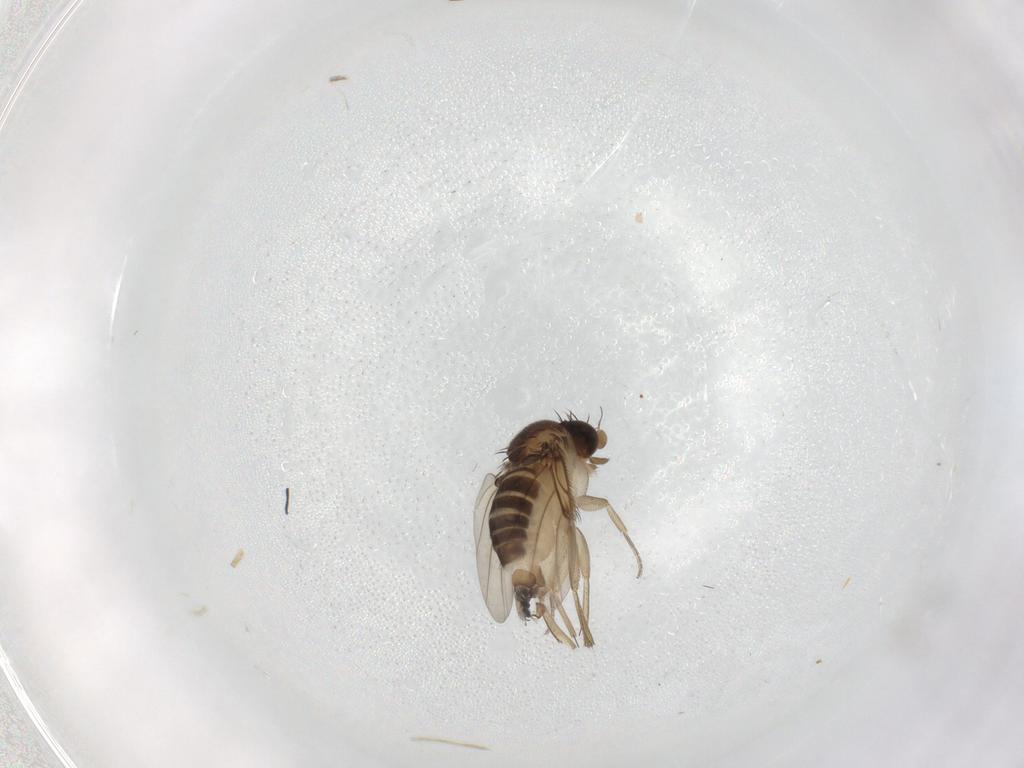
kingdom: Animalia
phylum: Arthropoda
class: Insecta
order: Diptera
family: Sciaridae
